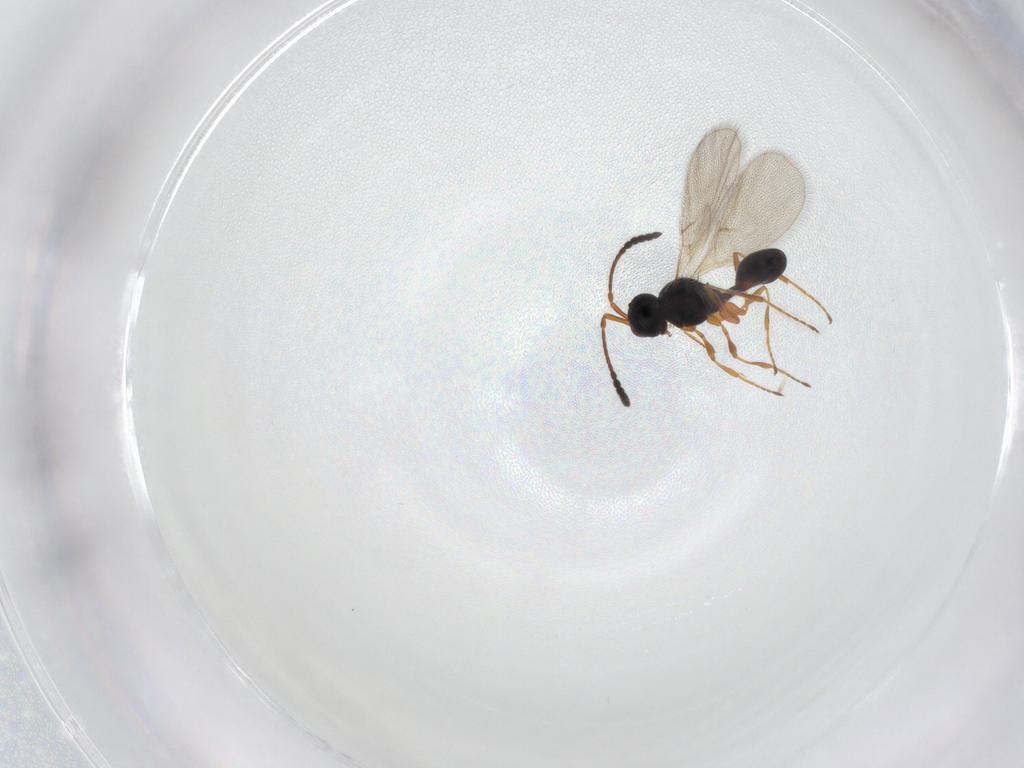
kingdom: Animalia
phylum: Arthropoda
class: Insecta
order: Hymenoptera
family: Diapriidae
